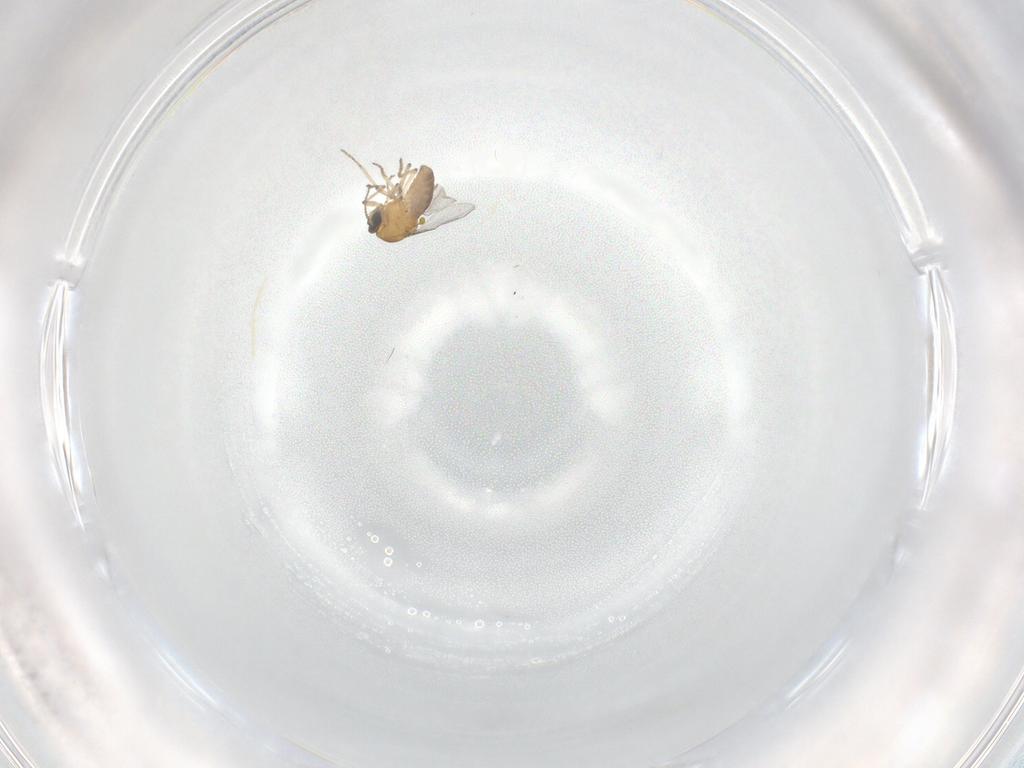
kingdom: Animalia
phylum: Arthropoda
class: Insecta
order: Diptera
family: Ceratopogonidae
